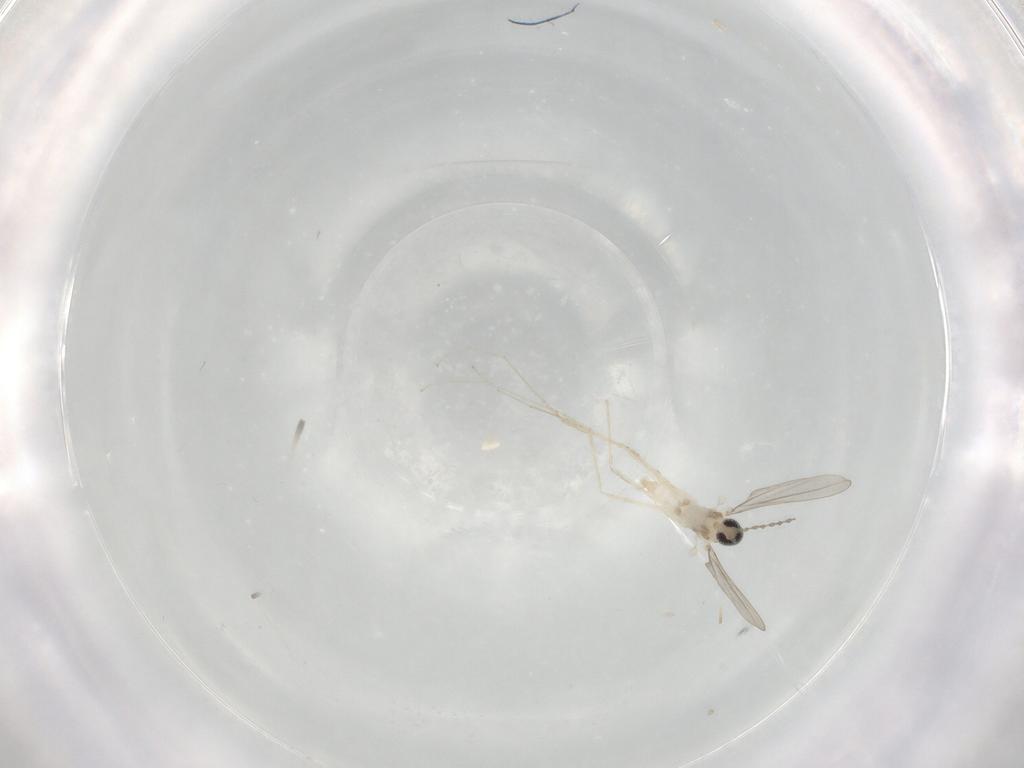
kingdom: Animalia
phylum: Arthropoda
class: Insecta
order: Diptera
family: Cecidomyiidae
